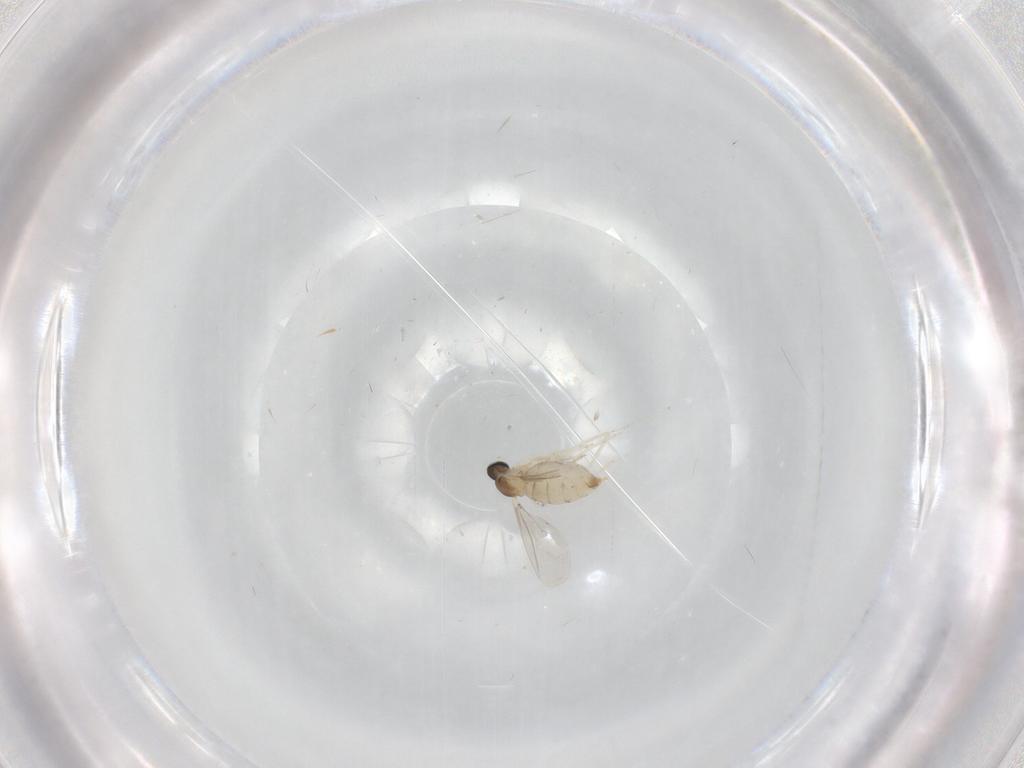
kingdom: Animalia
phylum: Arthropoda
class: Insecta
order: Diptera
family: Cecidomyiidae
